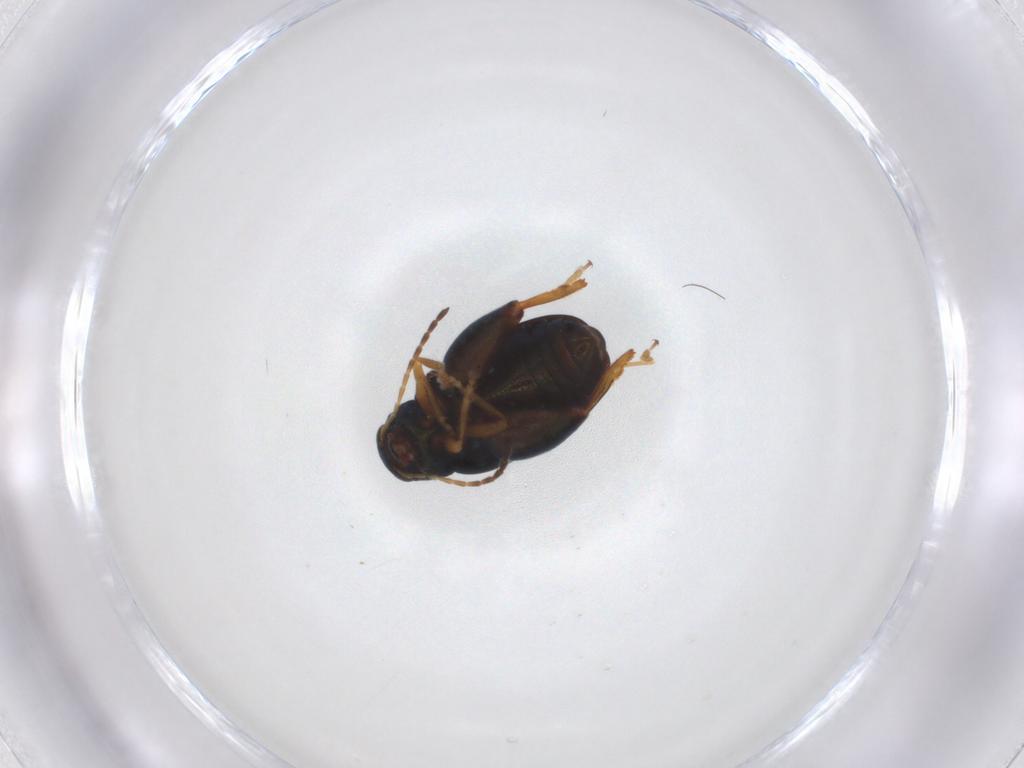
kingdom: Animalia
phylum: Arthropoda
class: Insecta
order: Coleoptera
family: Chrysomelidae
